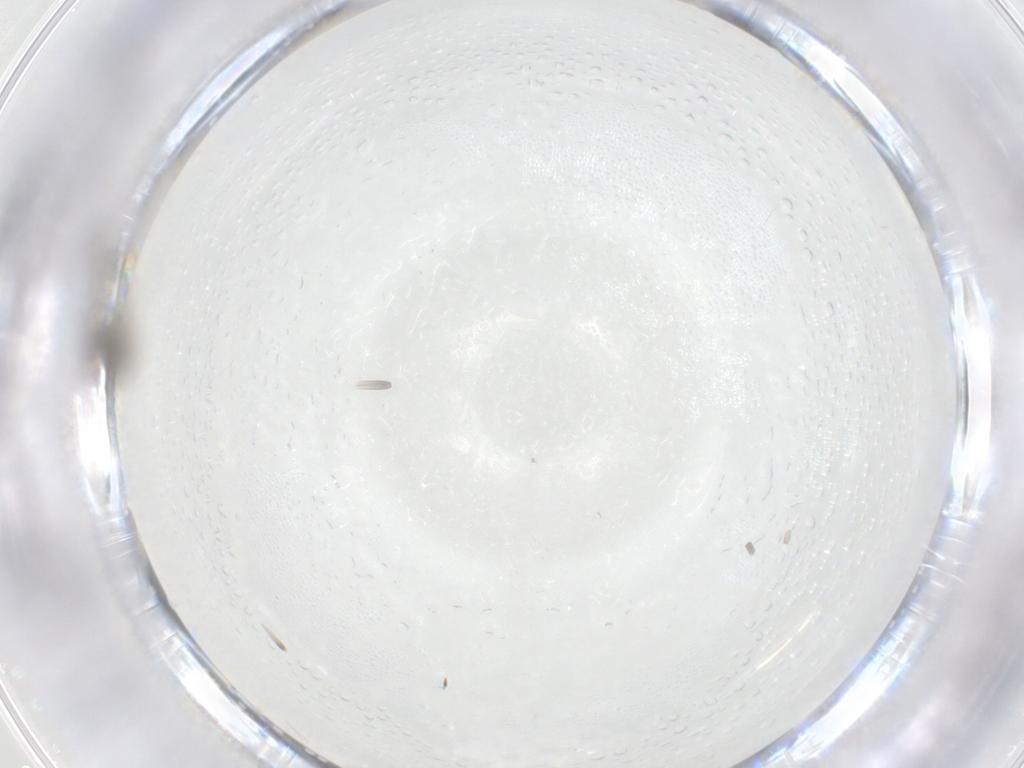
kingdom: Animalia
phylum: Arthropoda
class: Insecta
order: Diptera
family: Cecidomyiidae
